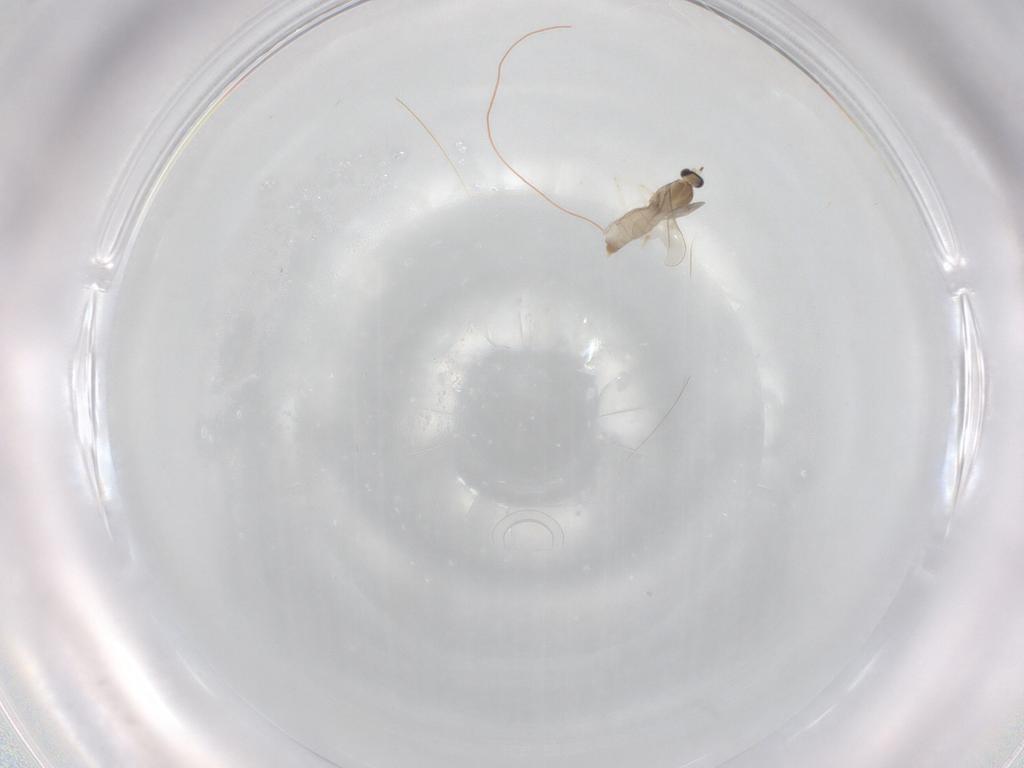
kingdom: Animalia
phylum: Arthropoda
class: Insecta
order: Diptera
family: Cecidomyiidae
